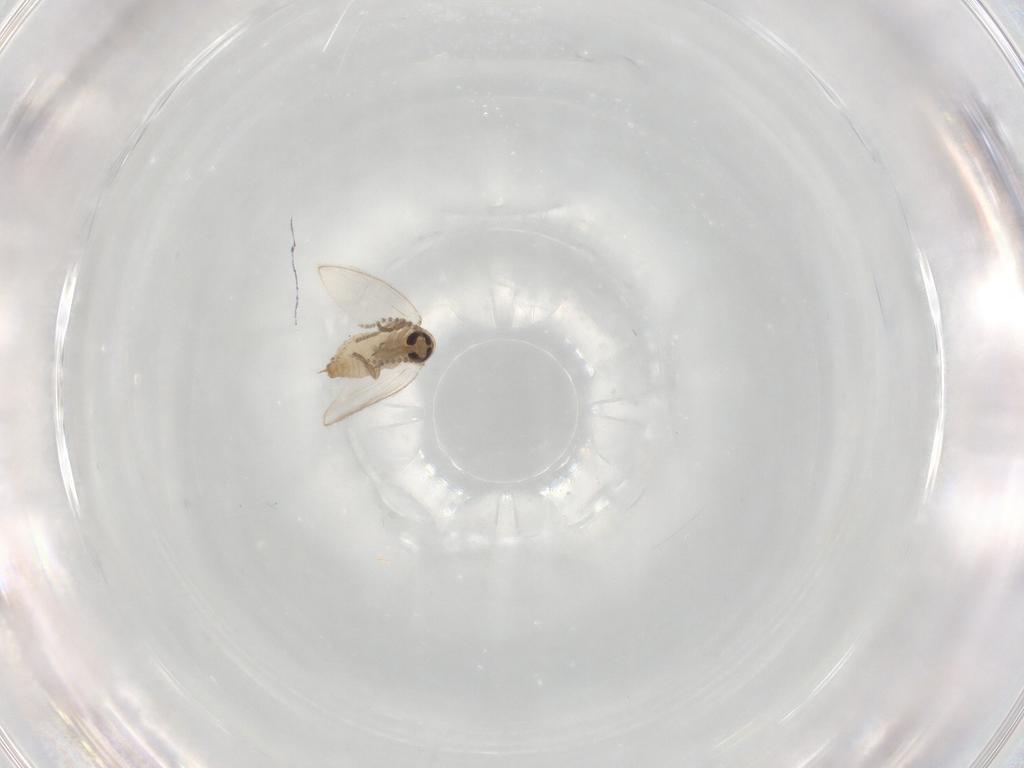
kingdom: Animalia
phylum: Arthropoda
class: Insecta
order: Diptera
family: Psychodidae
